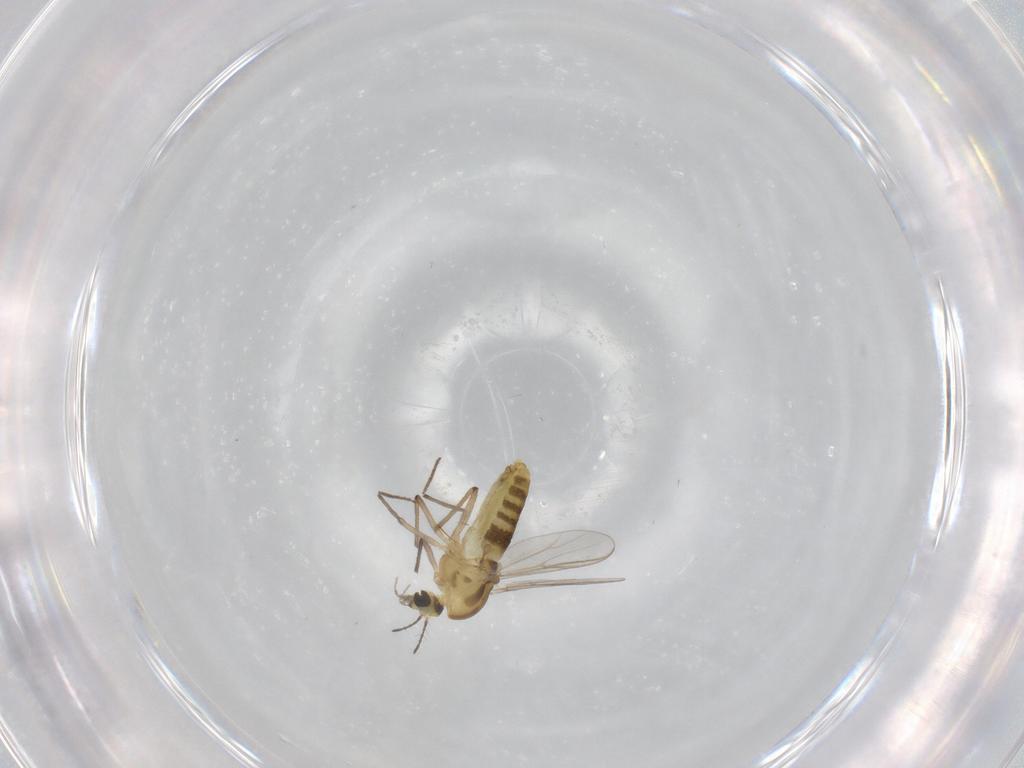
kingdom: Animalia
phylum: Arthropoda
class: Insecta
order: Diptera
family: Chironomidae
